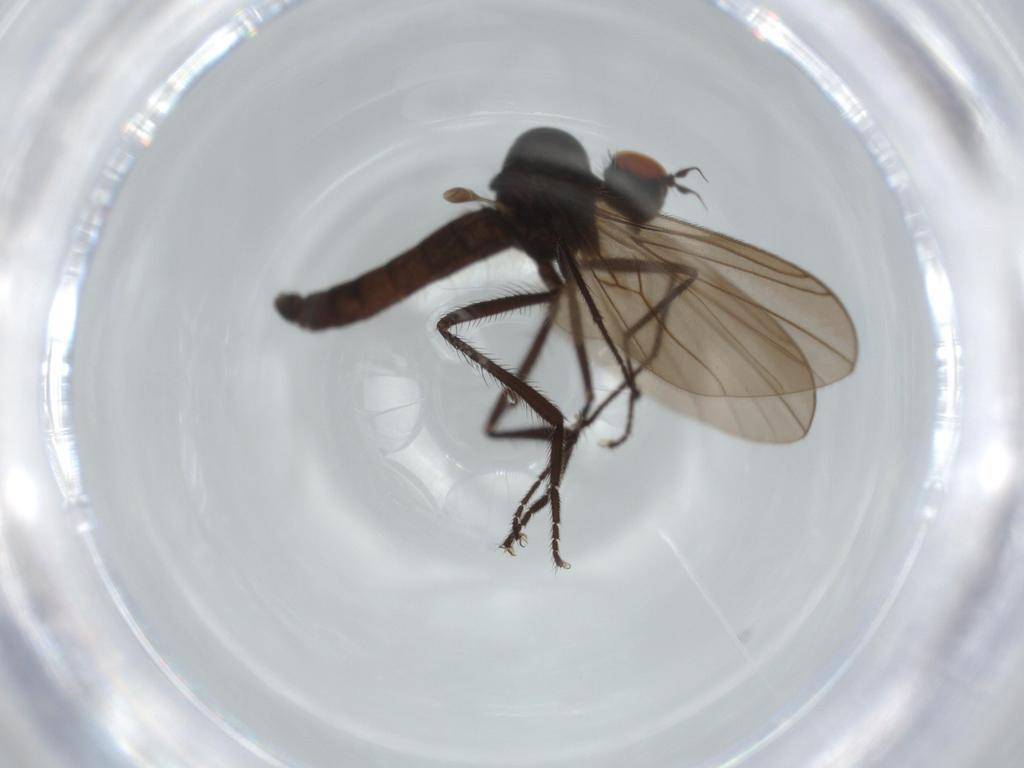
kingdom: Animalia
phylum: Arthropoda
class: Insecta
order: Diptera
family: Hybotidae
